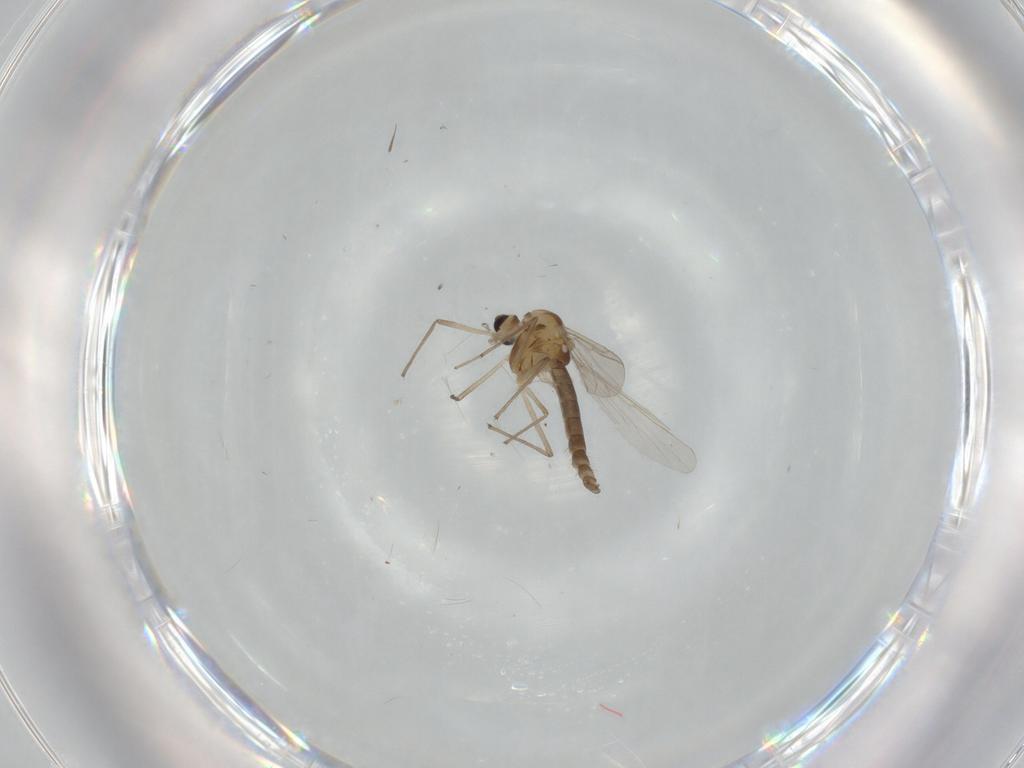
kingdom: Animalia
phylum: Arthropoda
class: Insecta
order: Diptera
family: Chironomidae
